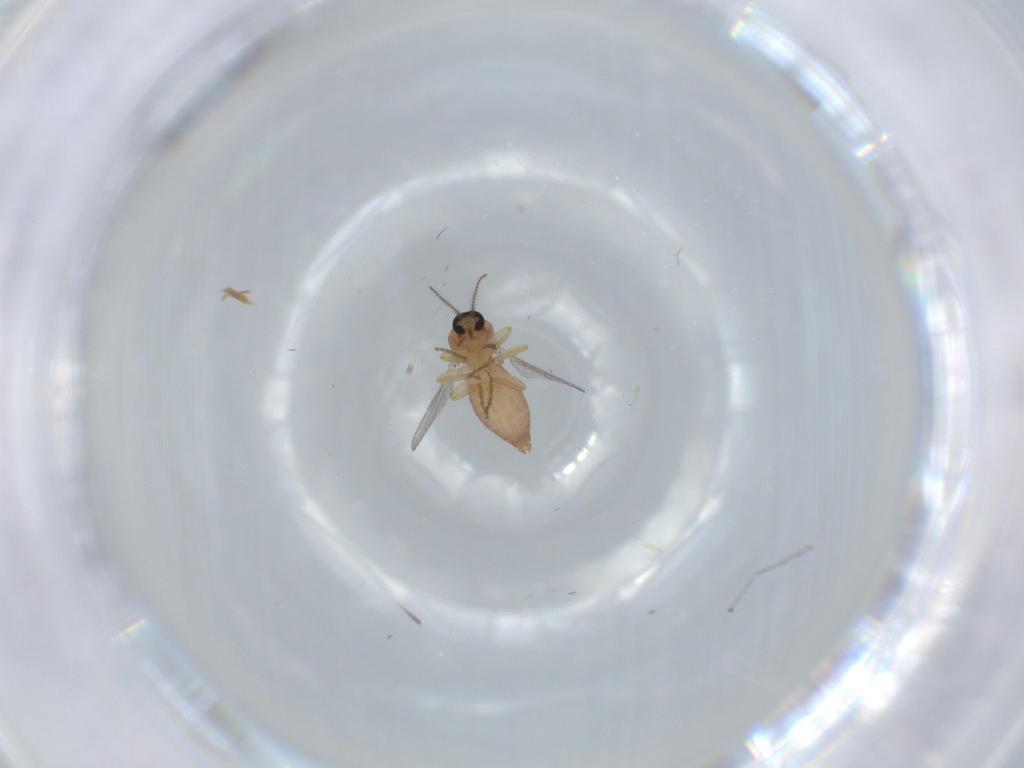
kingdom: Animalia
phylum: Arthropoda
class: Insecta
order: Diptera
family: Ceratopogonidae
